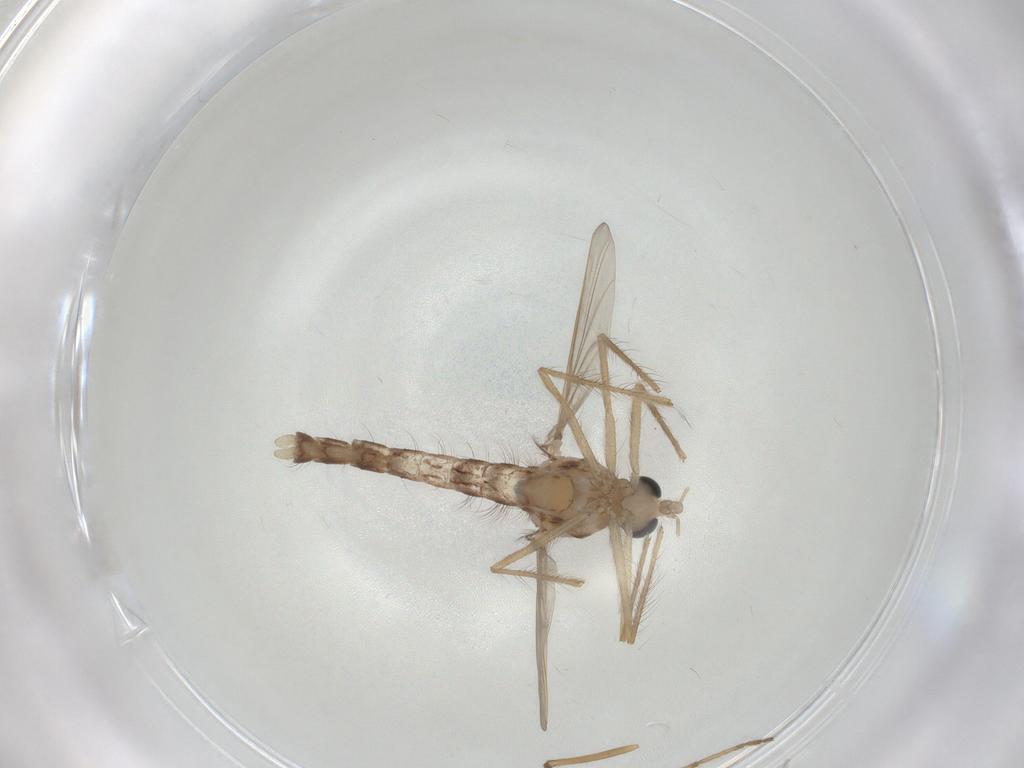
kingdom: Animalia
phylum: Arthropoda
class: Insecta
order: Diptera
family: Chironomidae
